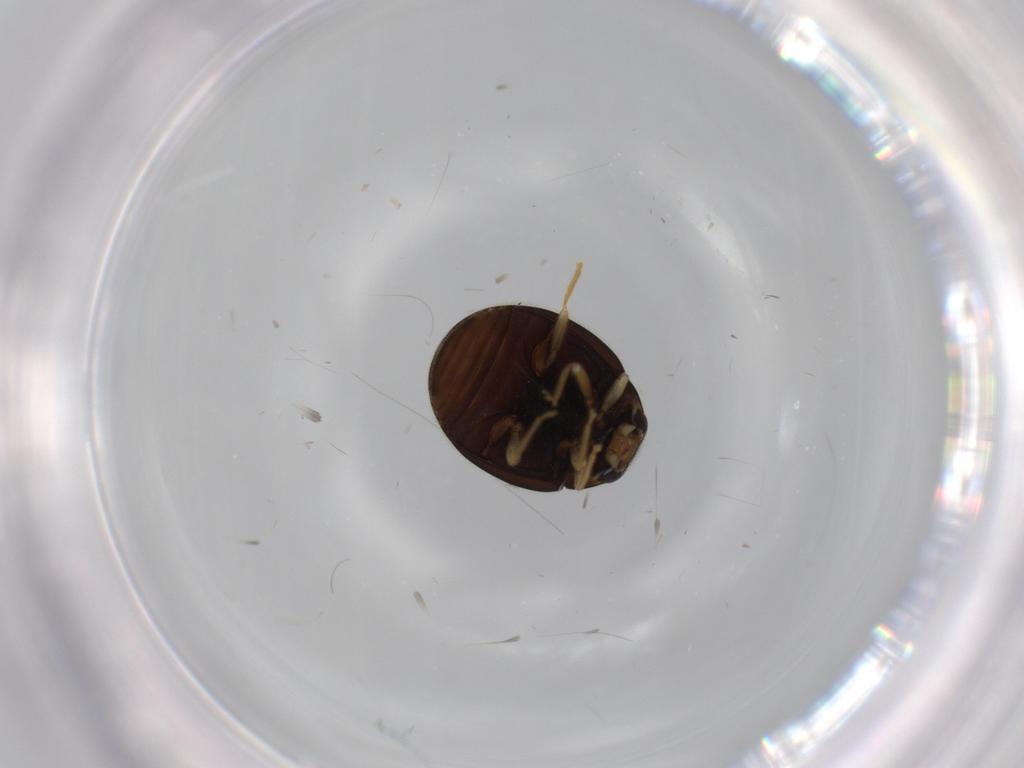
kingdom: Animalia
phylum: Arthropoda
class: Insecta
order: Coleoptera
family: Coccinellidae
